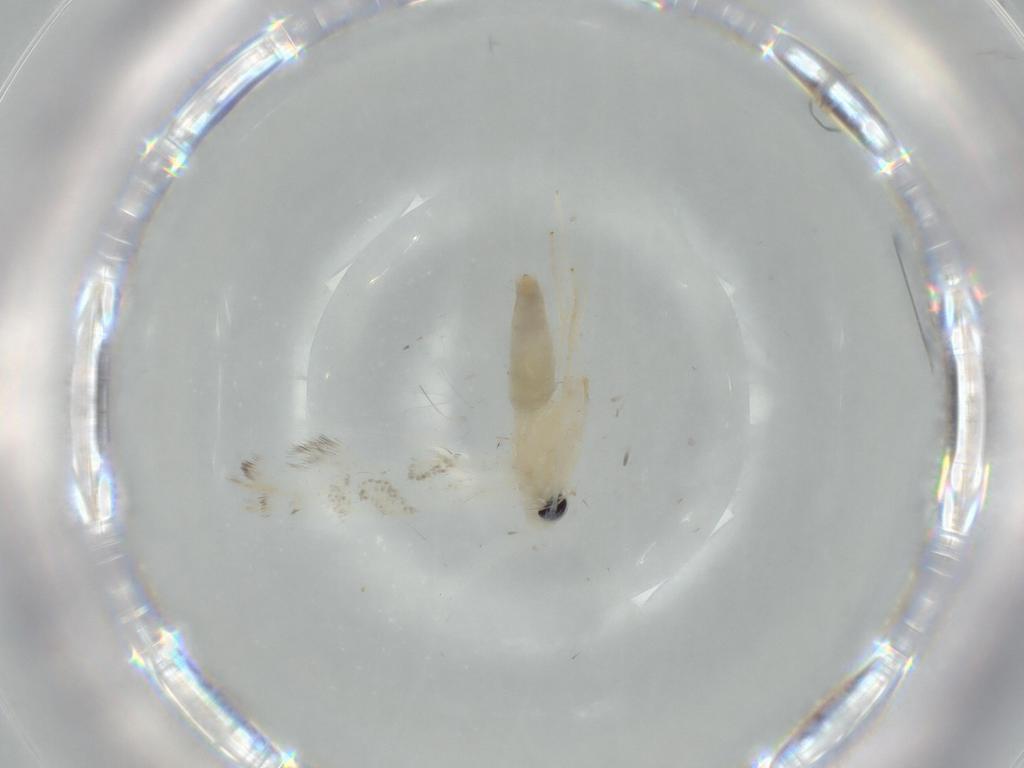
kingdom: Animalia
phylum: Arthropoda
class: Insecta
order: Lepidoptera
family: Gracillariidae
